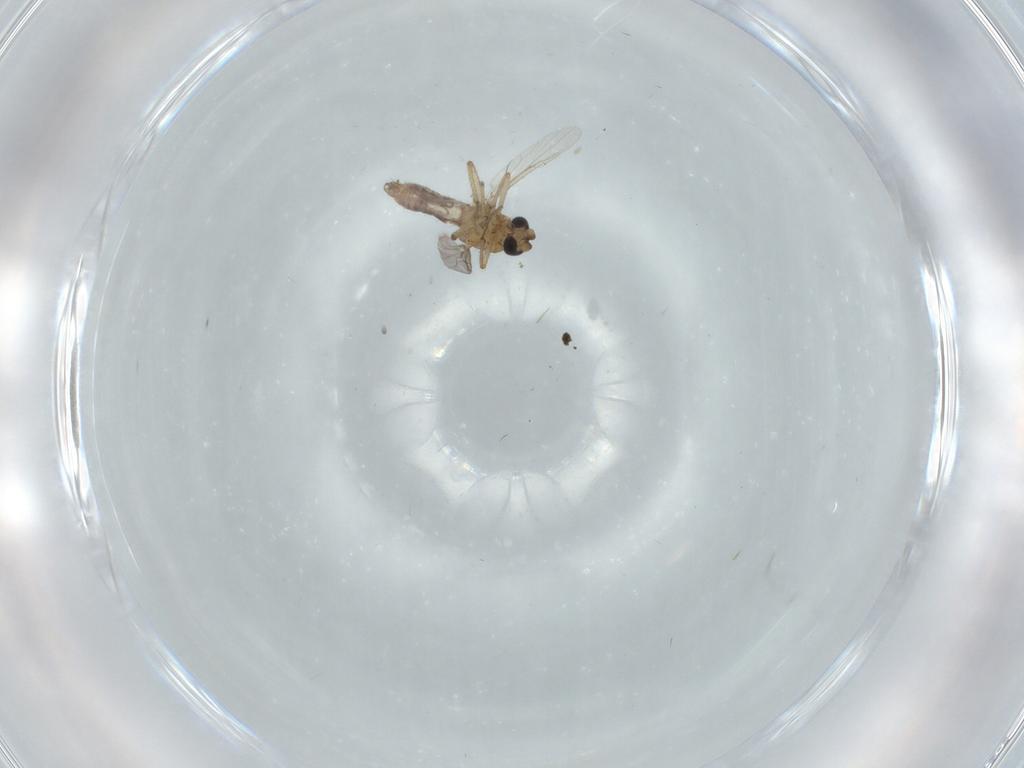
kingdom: Animalia
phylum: Arthropoda
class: Insecta
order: Diptera
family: Ceratopogonidae
